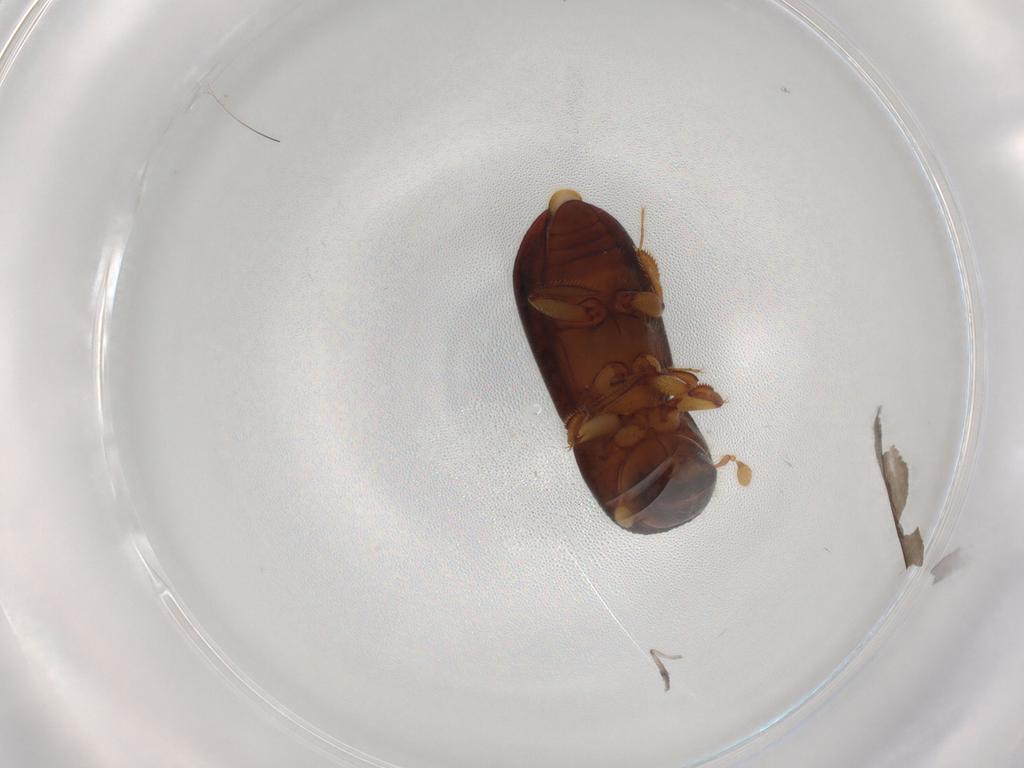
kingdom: Animalia
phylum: Arthropoda
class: Insecta
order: Coleoptera
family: Curculionidae
